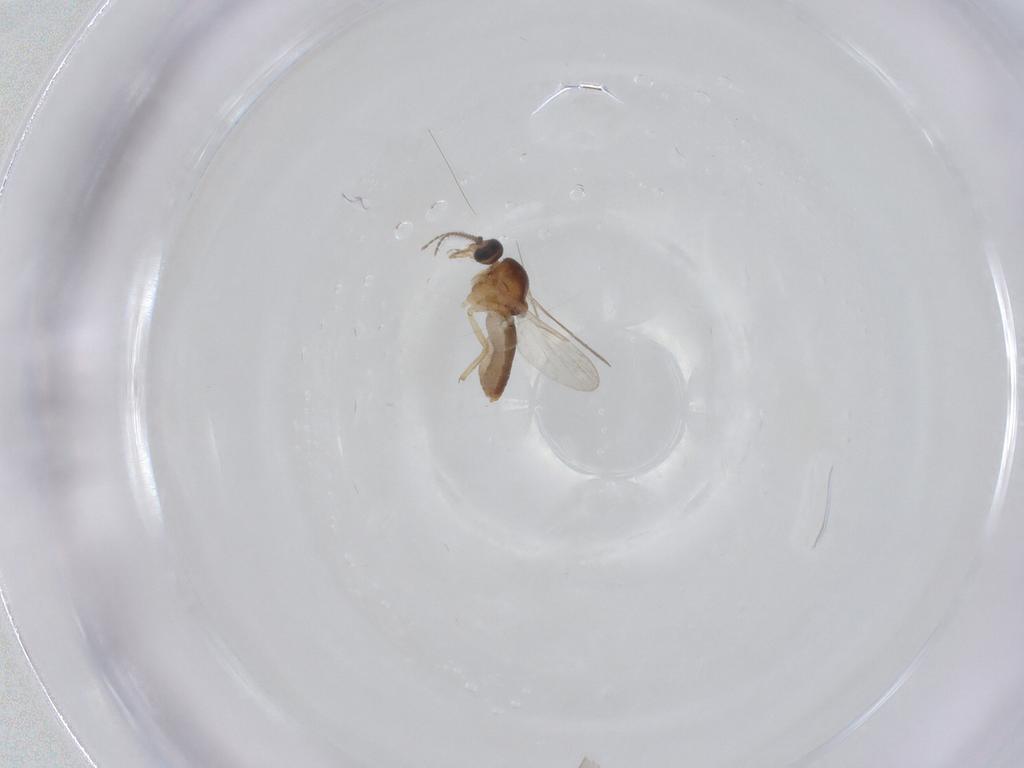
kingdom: Animalia
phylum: Arthropoda
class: Insecta
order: Diptera
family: Ceratopogonidae
